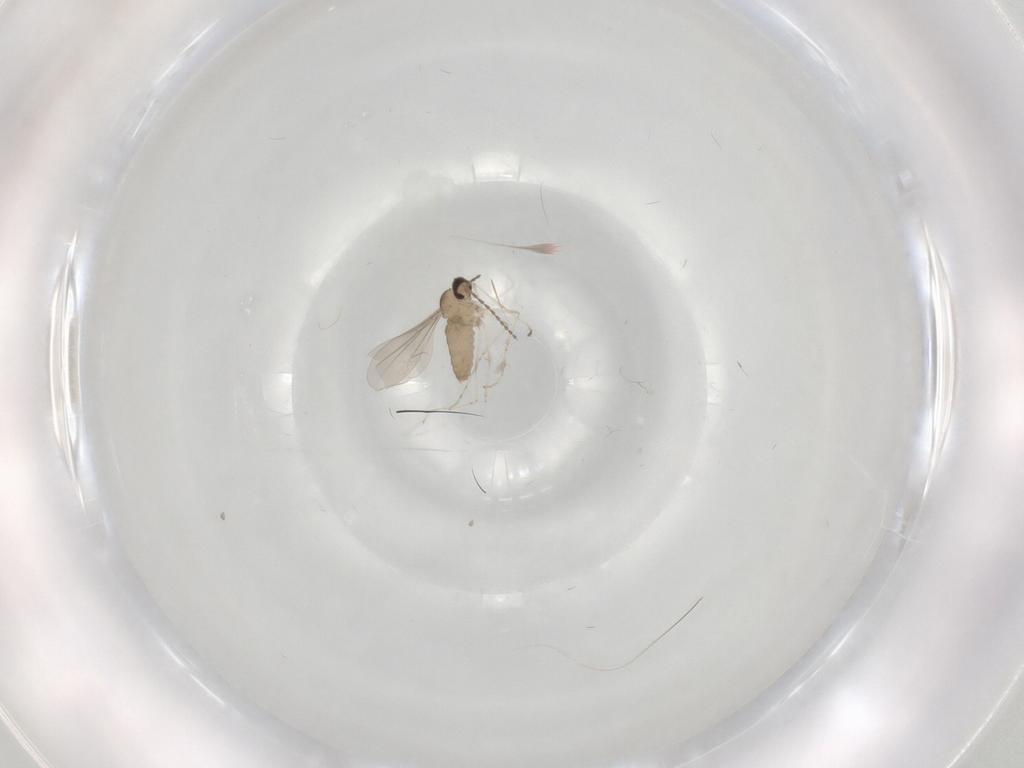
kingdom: Animalia
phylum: Arthropoda
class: Insecta
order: Diptera
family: Cecidomyiidae
